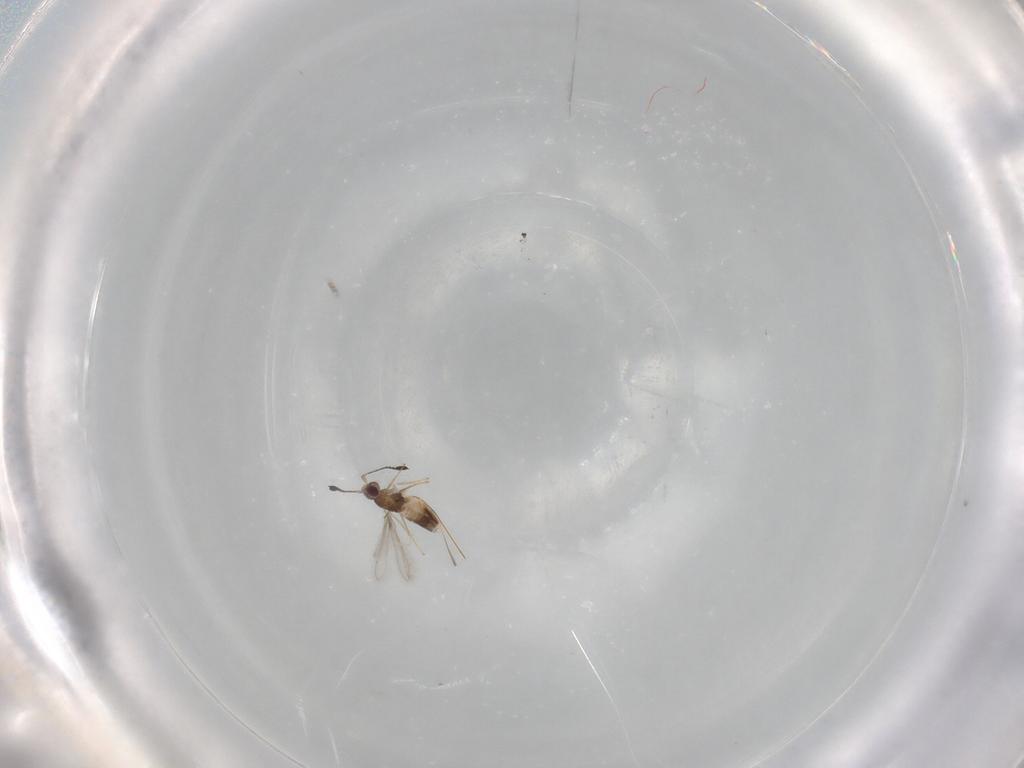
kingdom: Animalia
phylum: Arthropoda
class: Insecta
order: Hymenoptera
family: Mymaridae
